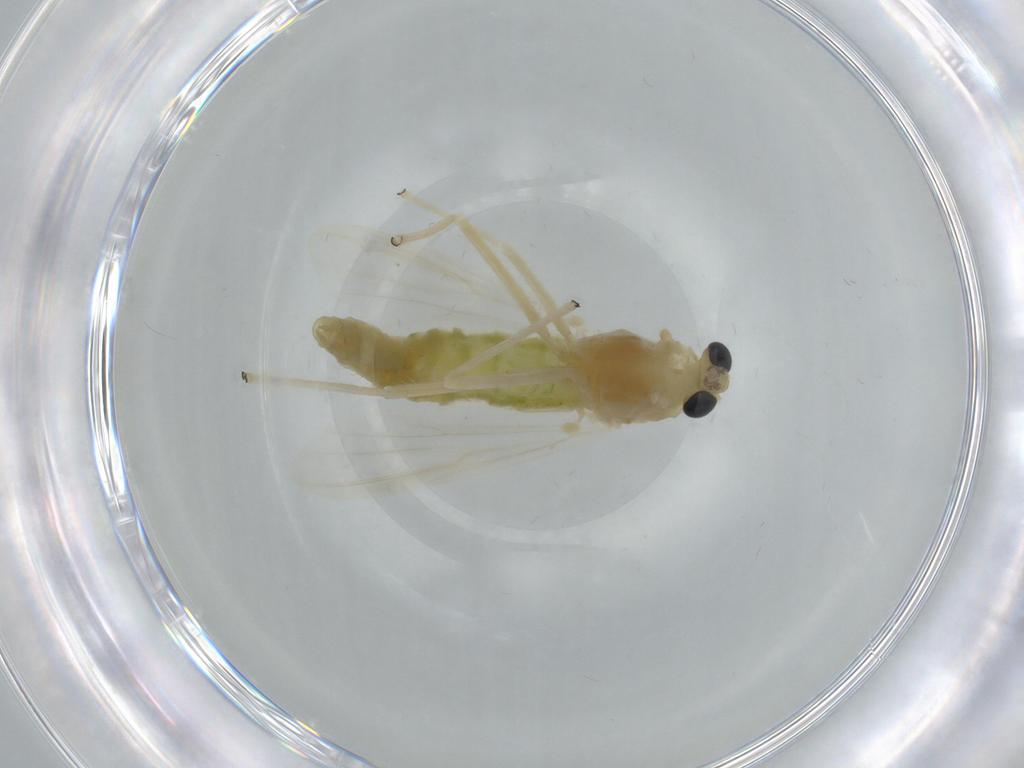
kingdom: Animalia
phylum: Arthropoda
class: Insecta
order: Diptera
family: Chironomidae
